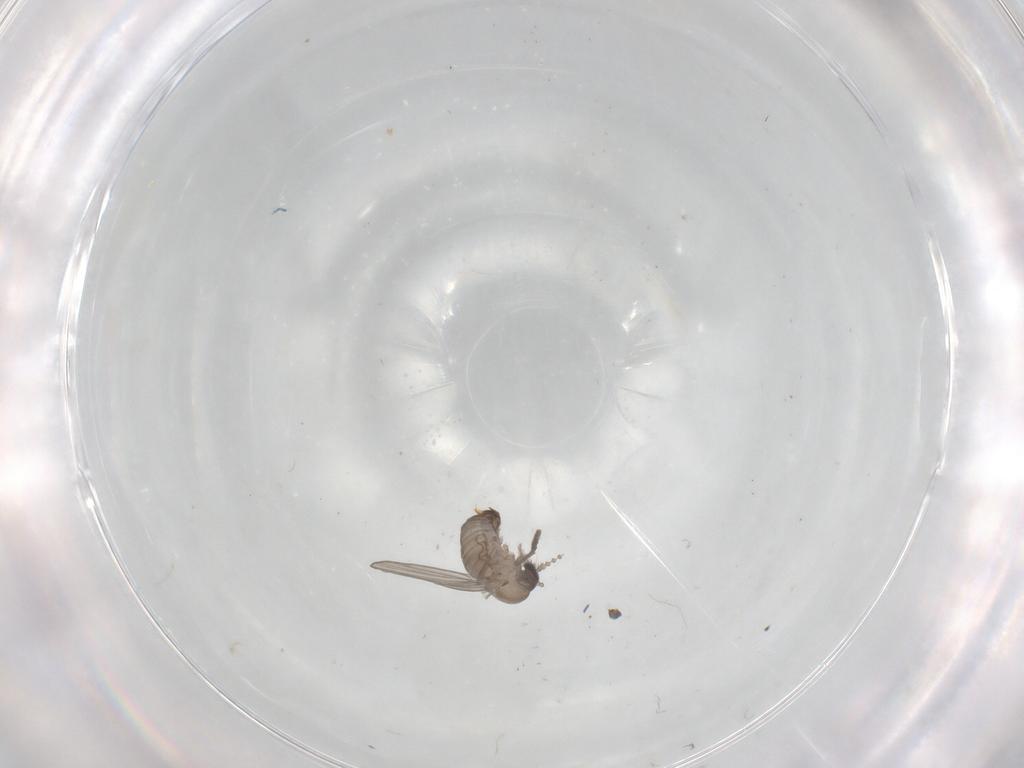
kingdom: Animalia
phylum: Arthropoda
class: Insecta
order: Diptera
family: Psychodidae
